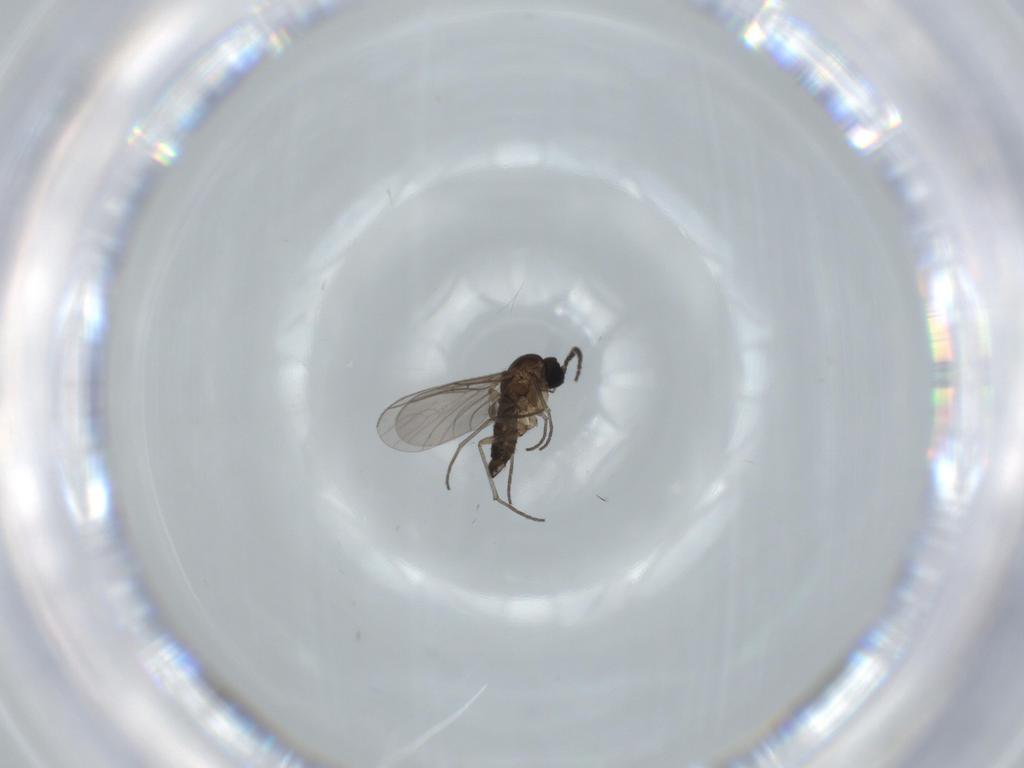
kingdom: Animalia
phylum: Arthropoda
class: Insecta
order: Diptera
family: Sciaridae
